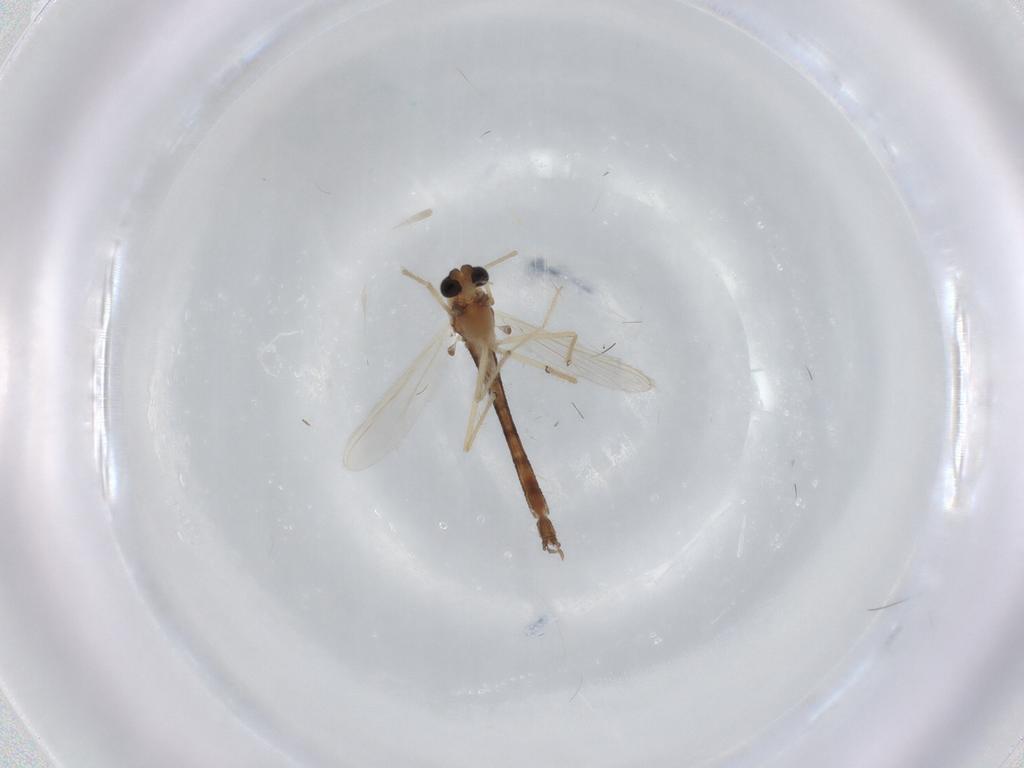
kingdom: Animalia
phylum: Arthropoda
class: Insecta
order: Diptera
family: Chironomidae
